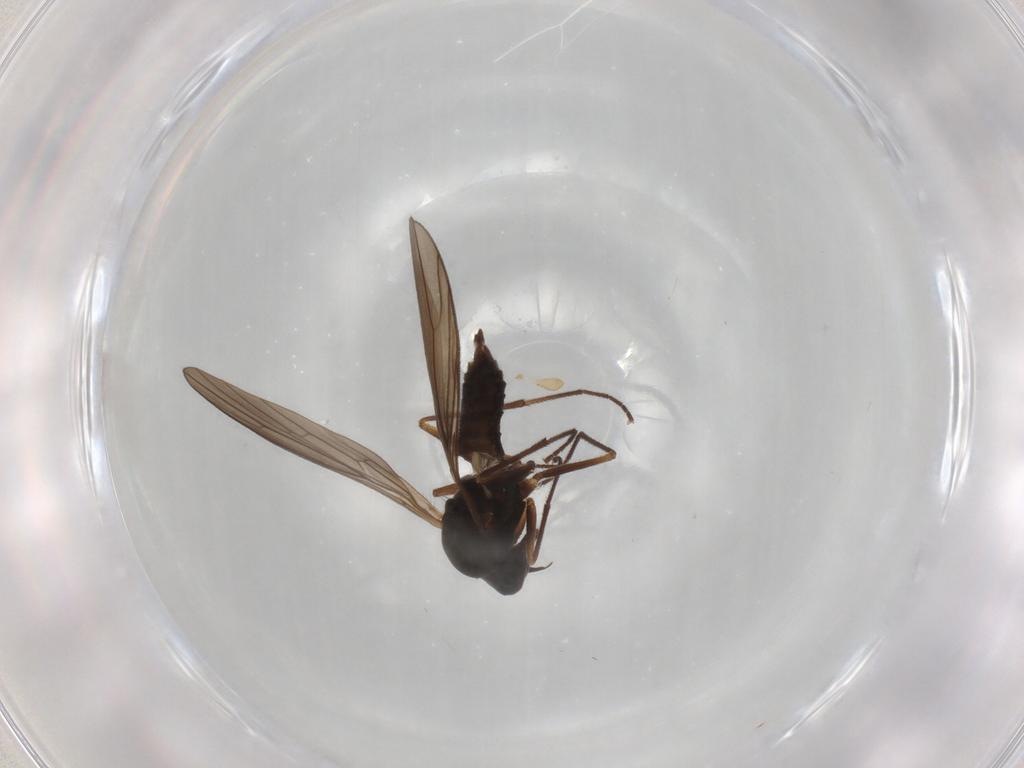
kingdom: Animalia
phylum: Arthropoda
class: Insecta
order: Diptera
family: Empididae
